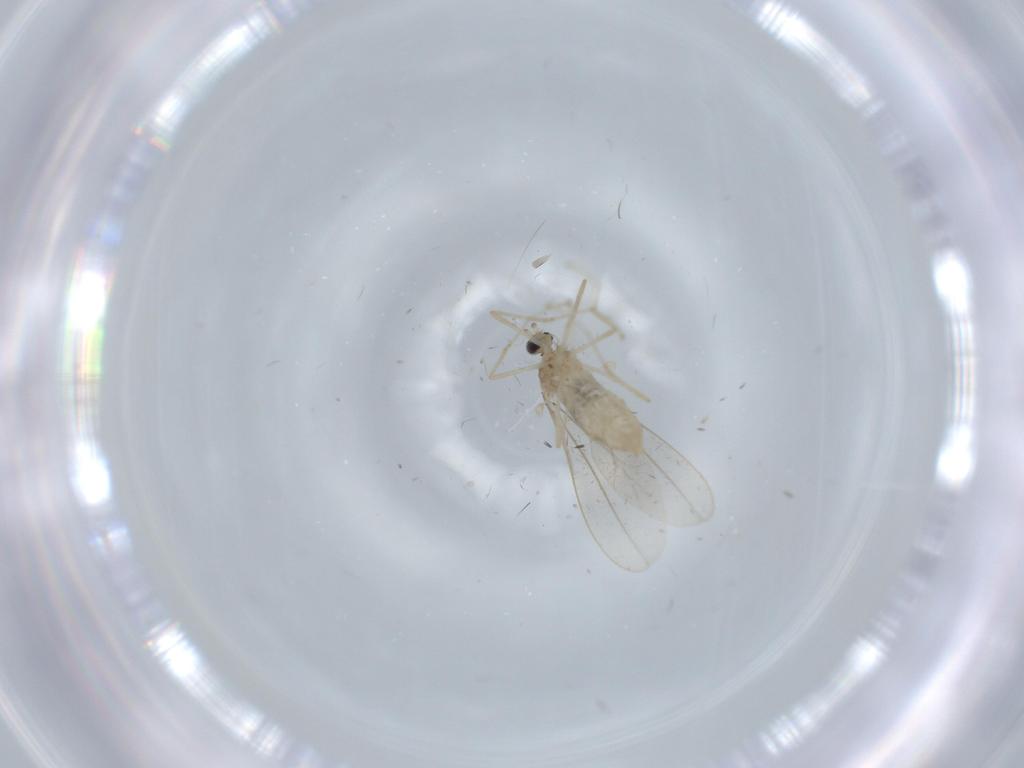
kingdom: Animalia
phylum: Arthropoda
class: Insecta
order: Diptera
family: Cecidomyiidae
